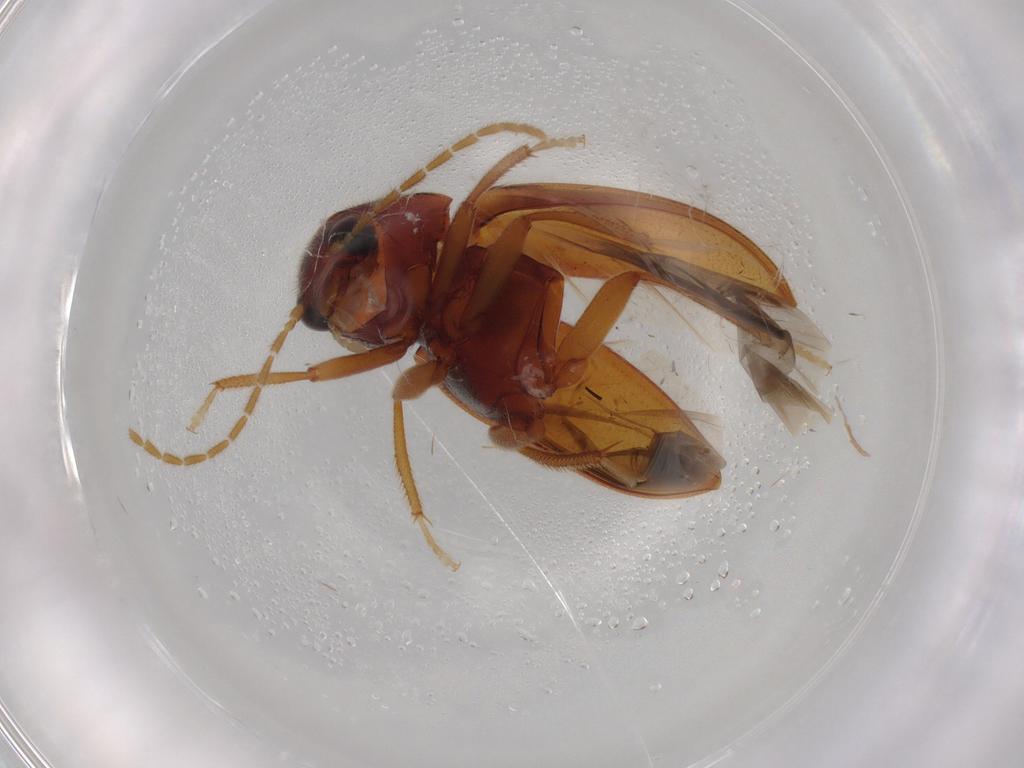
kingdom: Animalia
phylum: Arthropoda
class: Insecta
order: Coleoptera
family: Ptilodactylidae
